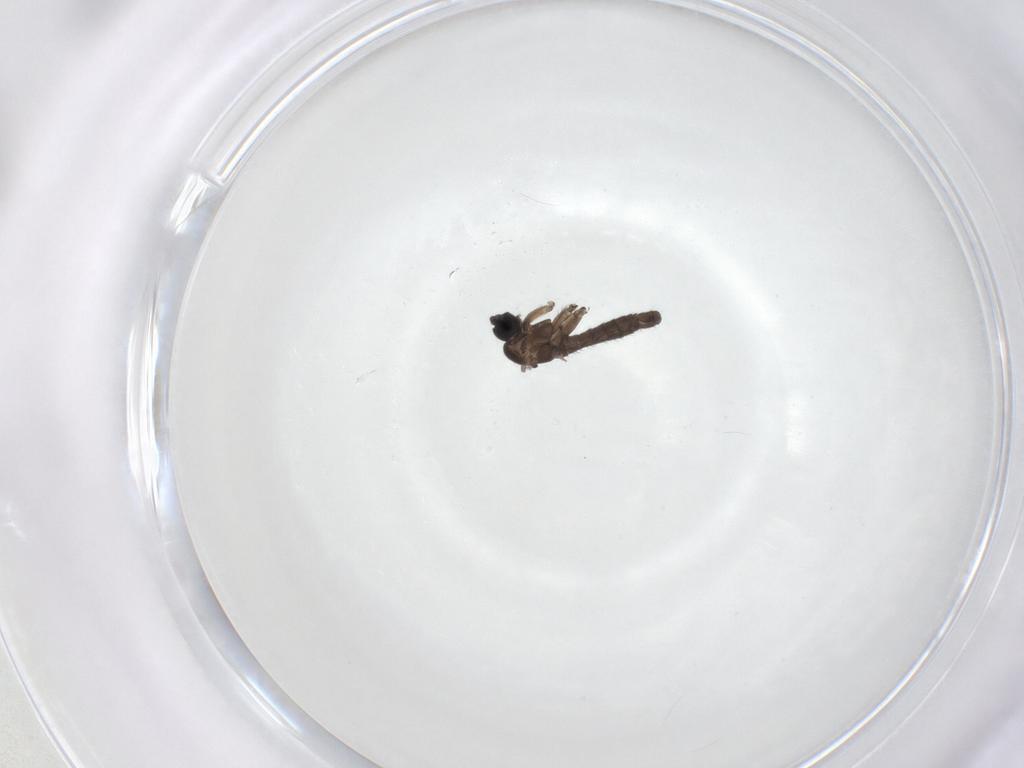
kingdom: Animalia
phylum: Arthropoda
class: Insecta
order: Diptera
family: Sciaridae
